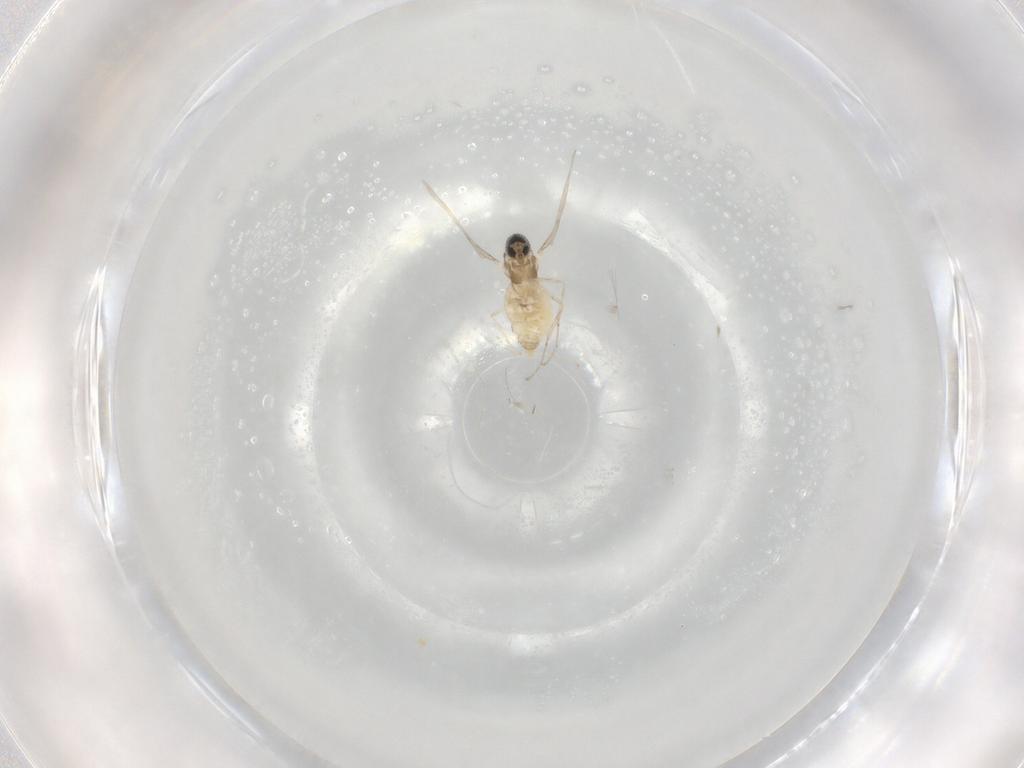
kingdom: Animalia
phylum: Arthropoda
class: Insecta
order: Diptera
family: Cecidomyiidae
